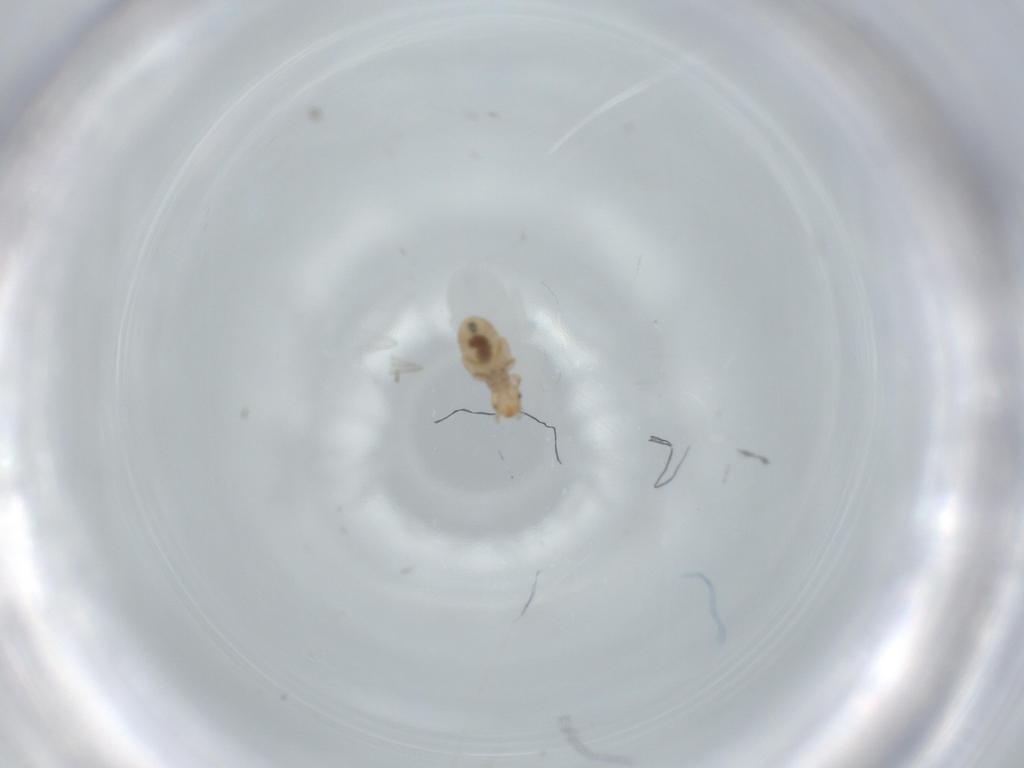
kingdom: Animalia
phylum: Arthropoda
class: Insecta
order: Psocodea
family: Liposcelididae
